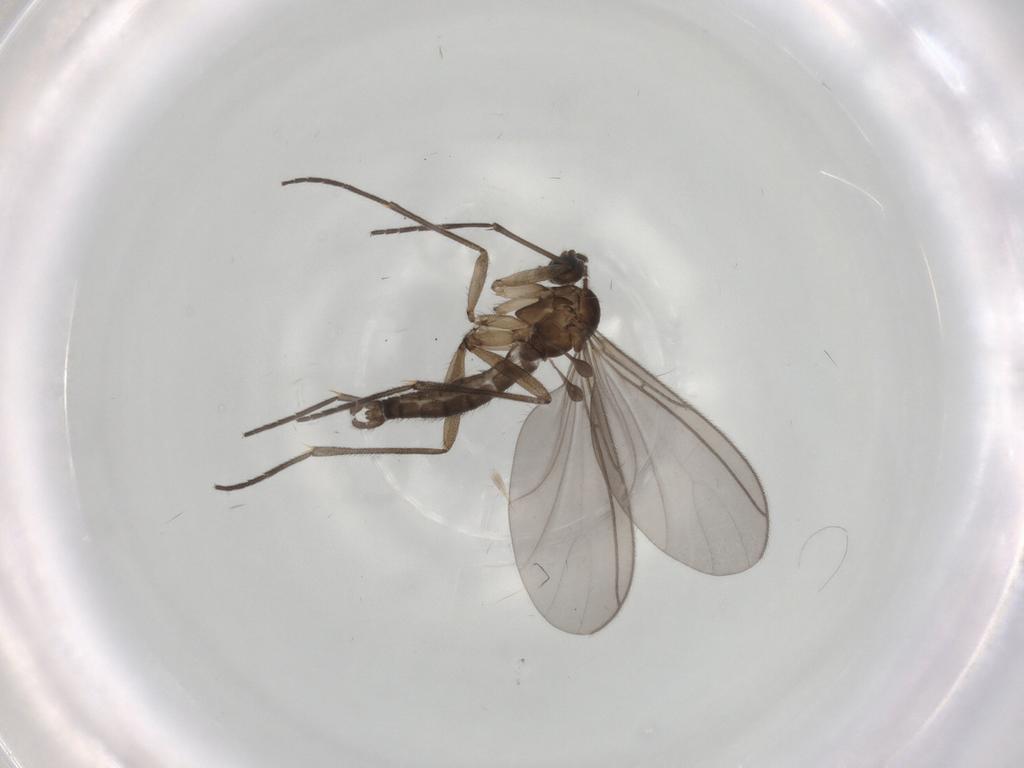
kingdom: Animalia
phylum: Arthropoda
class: Insecta
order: Diptera
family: Sciaridae
